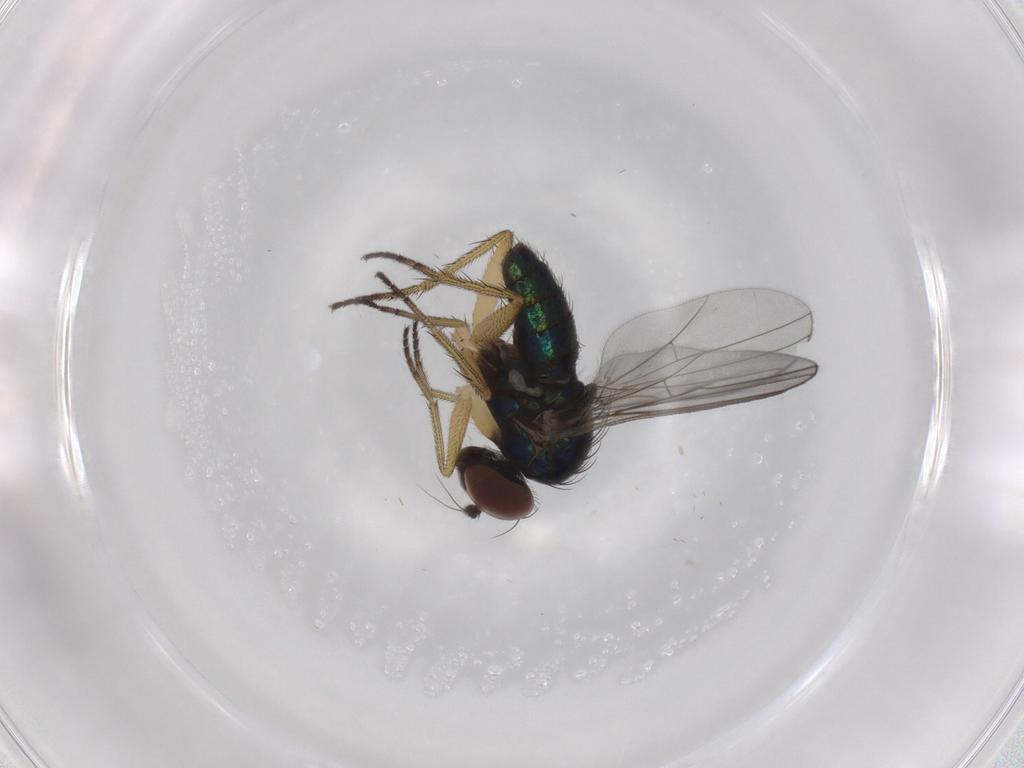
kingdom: Animalia
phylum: Arthropoda
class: Insecta
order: Diptera
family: Dolichopodidae
